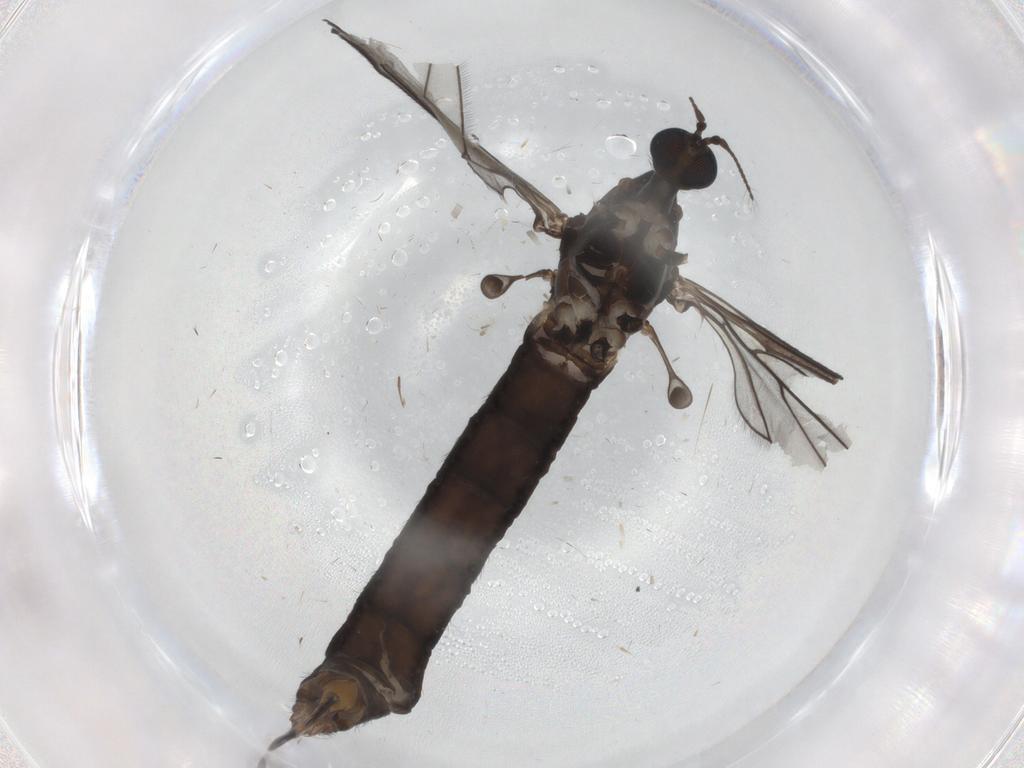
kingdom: Animalia
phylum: Arthropoda
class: Insecta
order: Diptera
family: Limoniidae
